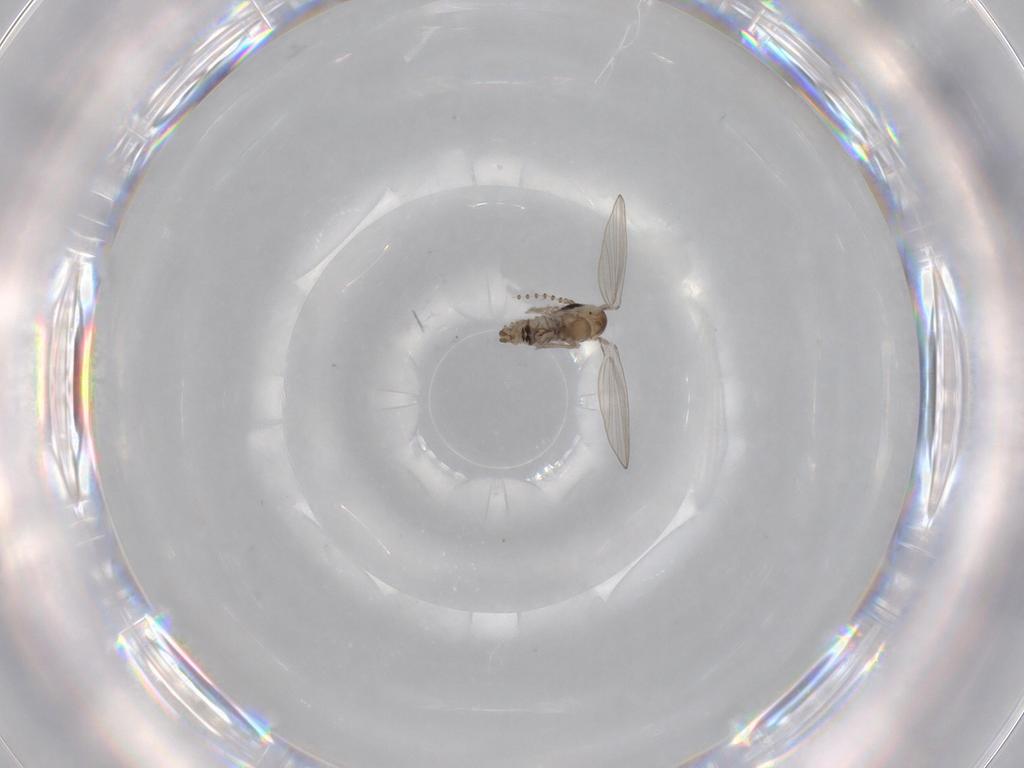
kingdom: Animalia
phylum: Arthropoda
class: Insecta
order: Diptera
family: Psychodidae
